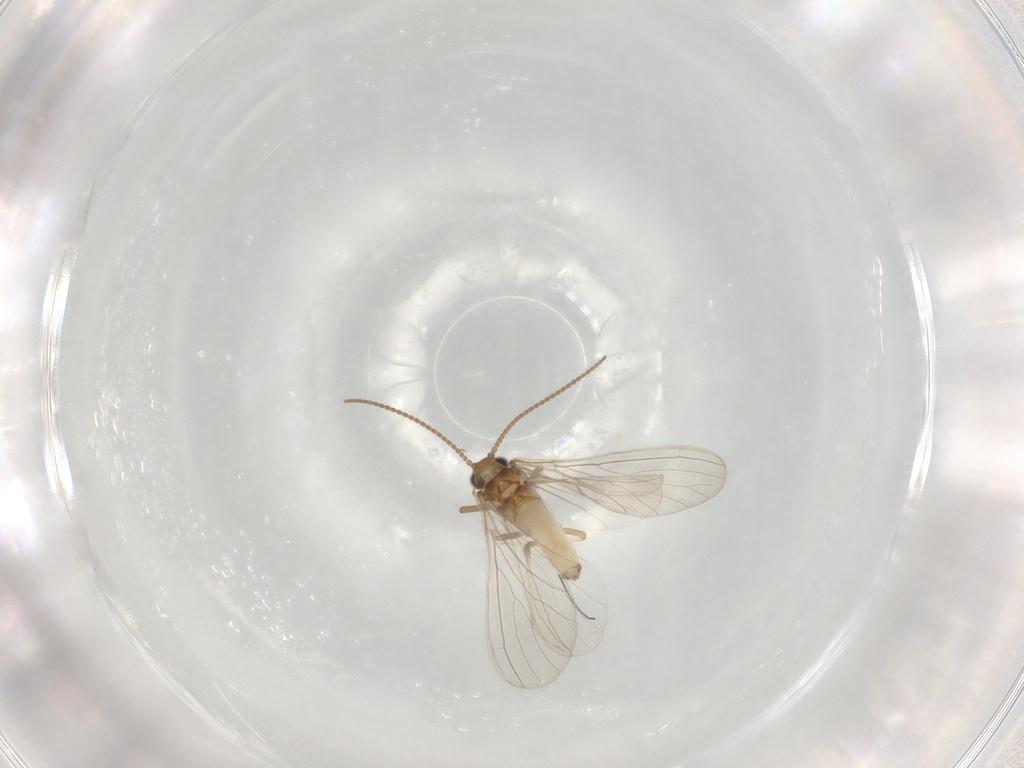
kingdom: Animalia
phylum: Arthropoda
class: Insecta
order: Neuroptera
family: Coniopterygidae
